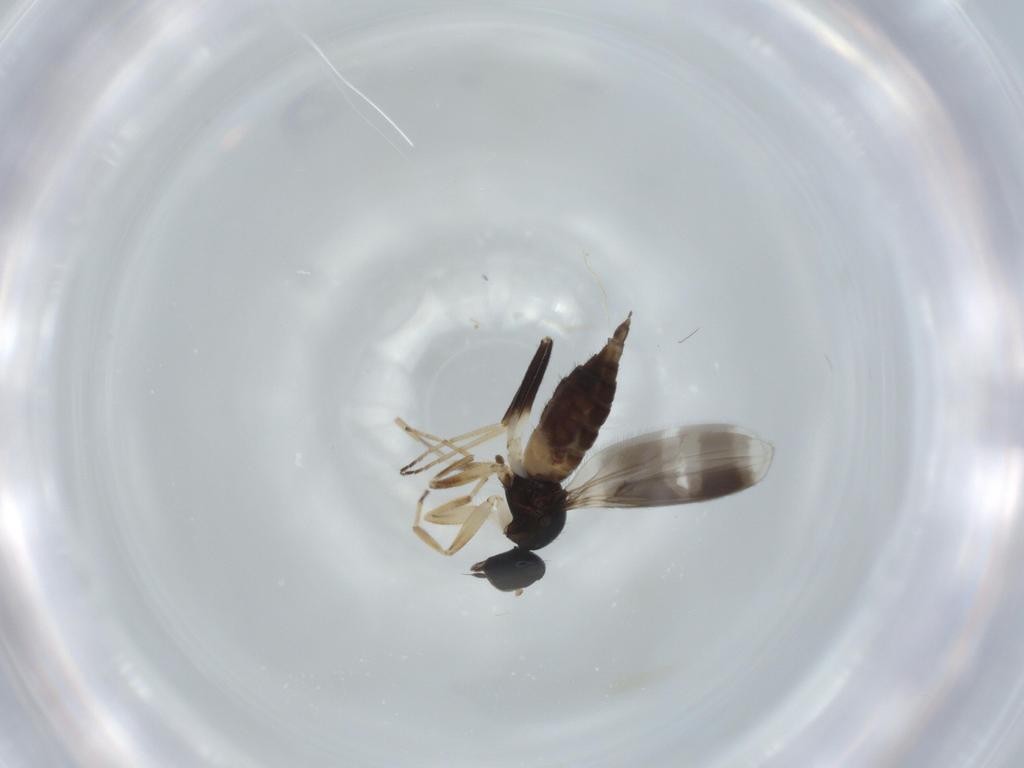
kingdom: Animalia
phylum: Arthropoda
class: Insecta
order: Diptera
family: Hybotidae
